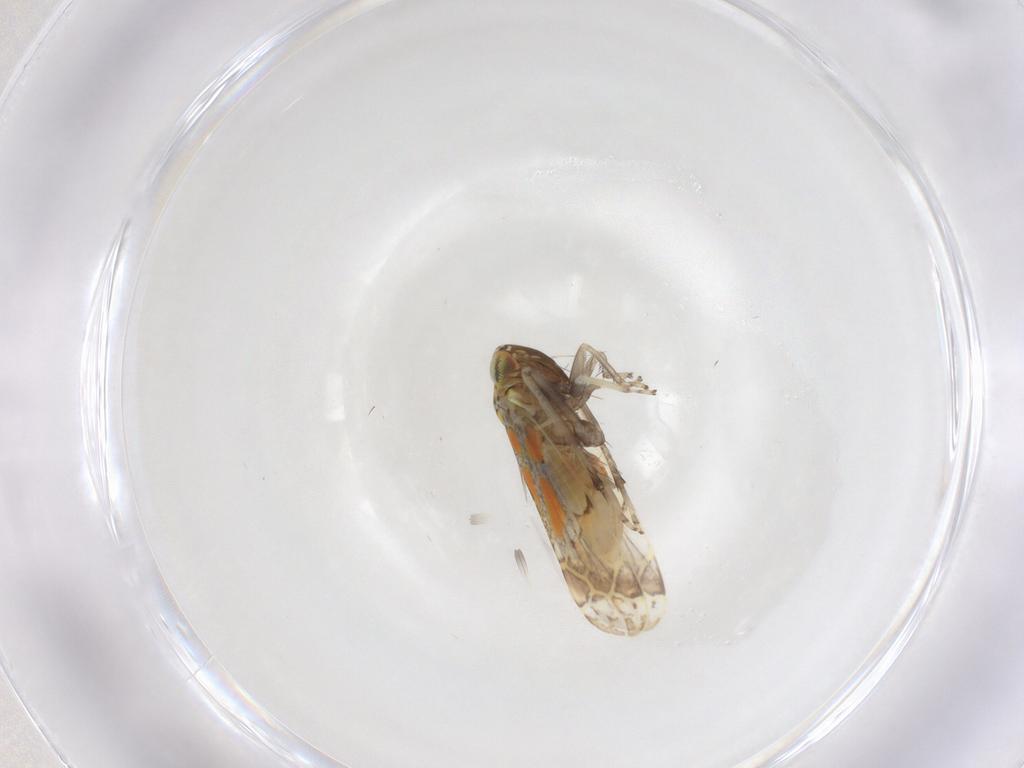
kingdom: Animalia
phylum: Arthropoda
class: Insecta
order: Hemiptera
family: Cicadellidae
